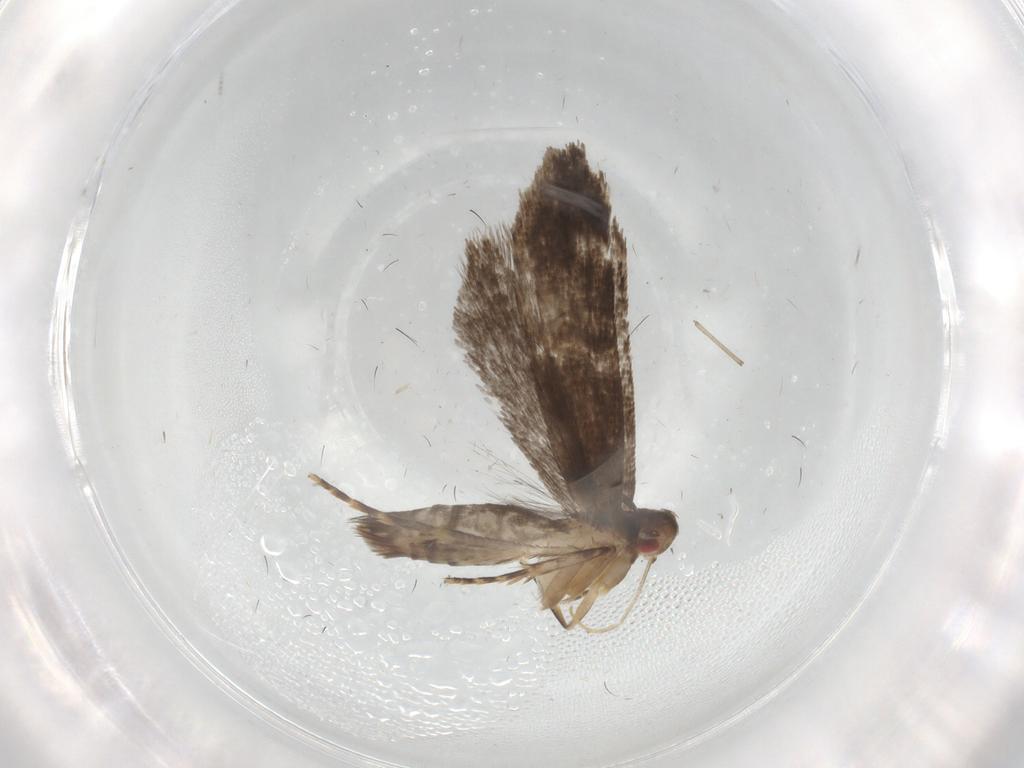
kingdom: Animalia
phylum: Arthropoda
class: Insecta
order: Lepidoptera
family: Gelechiidae
